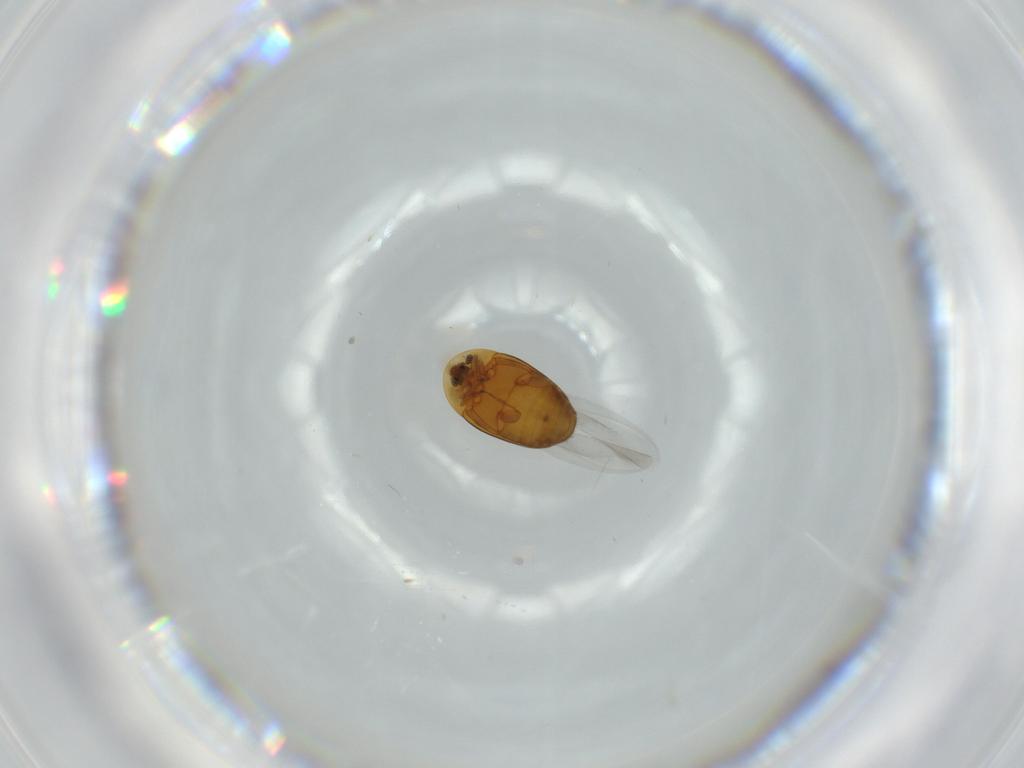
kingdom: Animalia
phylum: Arthropoda
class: Insecta
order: Coleoptera
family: Corylophidae
